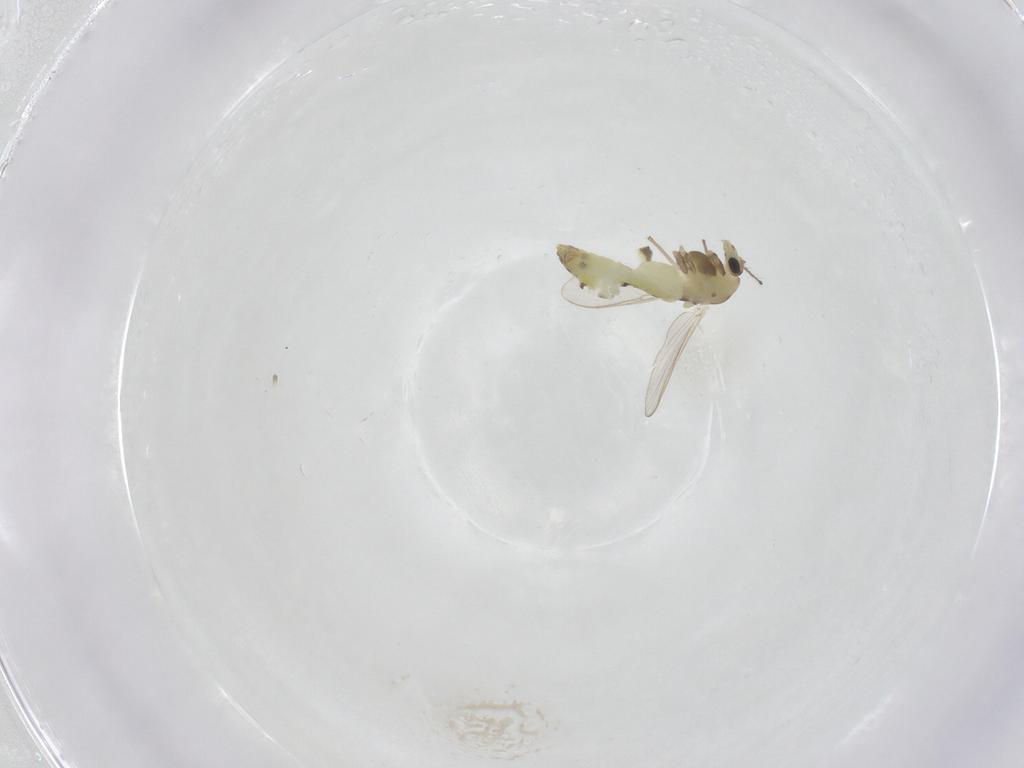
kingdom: Animalia
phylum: Arthropoda
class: Insecta
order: Diptera
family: Chironomidae
